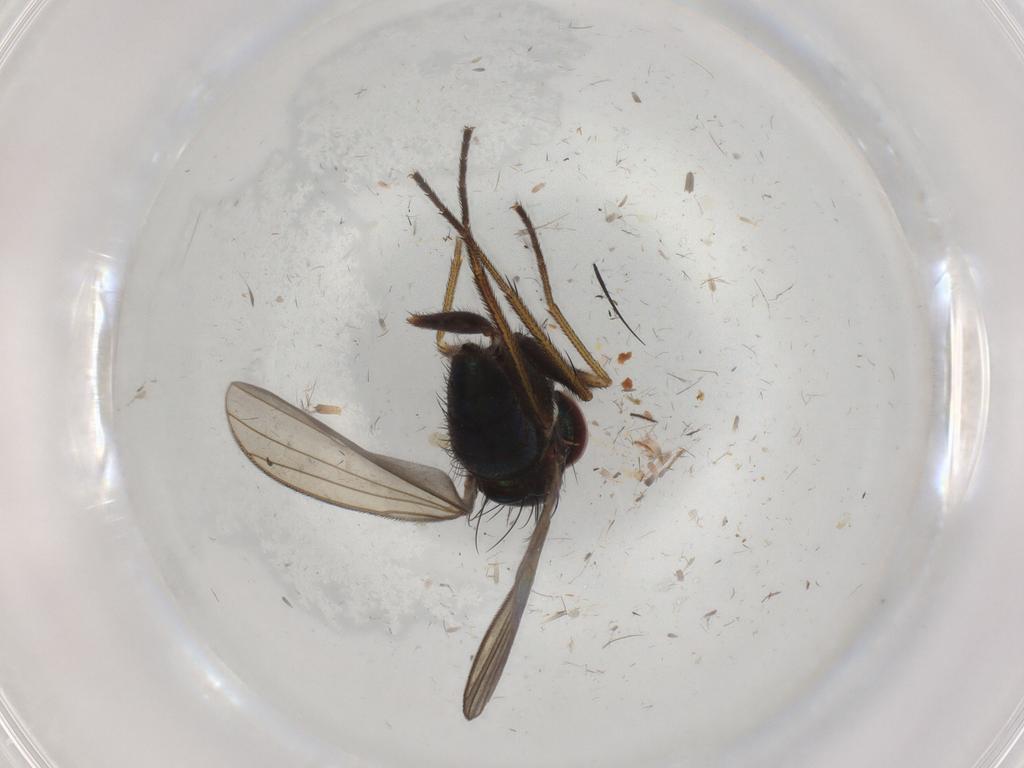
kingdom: Animalia
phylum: Arthropoda
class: Insecta
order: Diptera
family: Dolichopodidae
